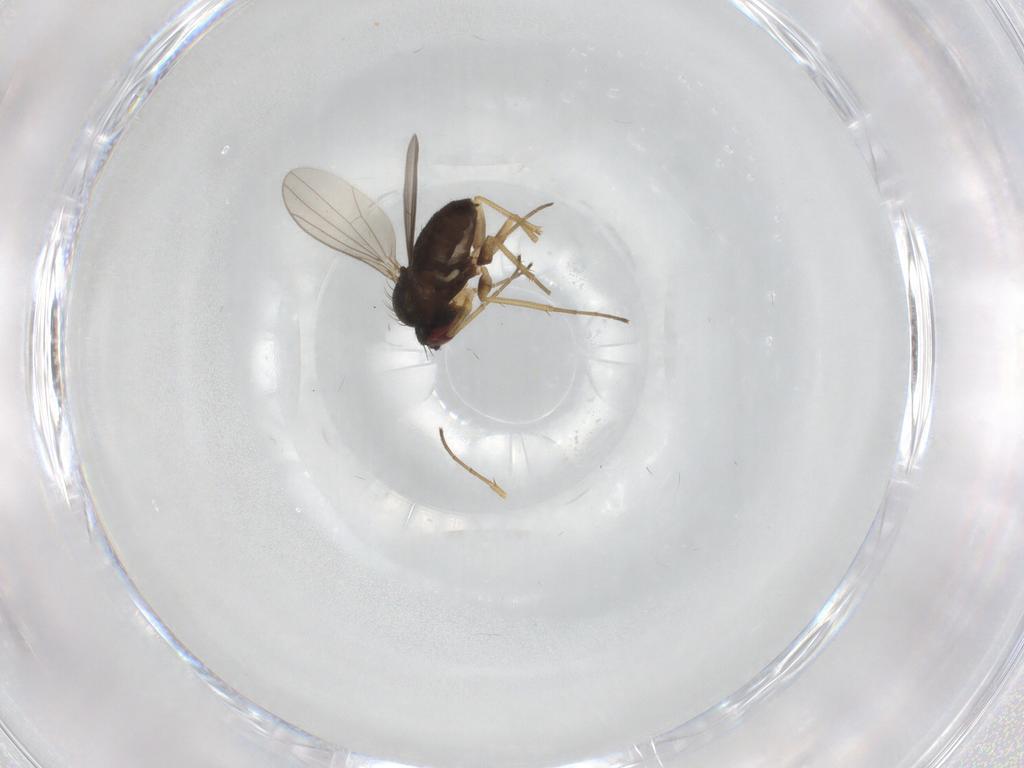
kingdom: Animalia
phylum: Arthropoda
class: Insecta
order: Diptera
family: Dolichopodidae
